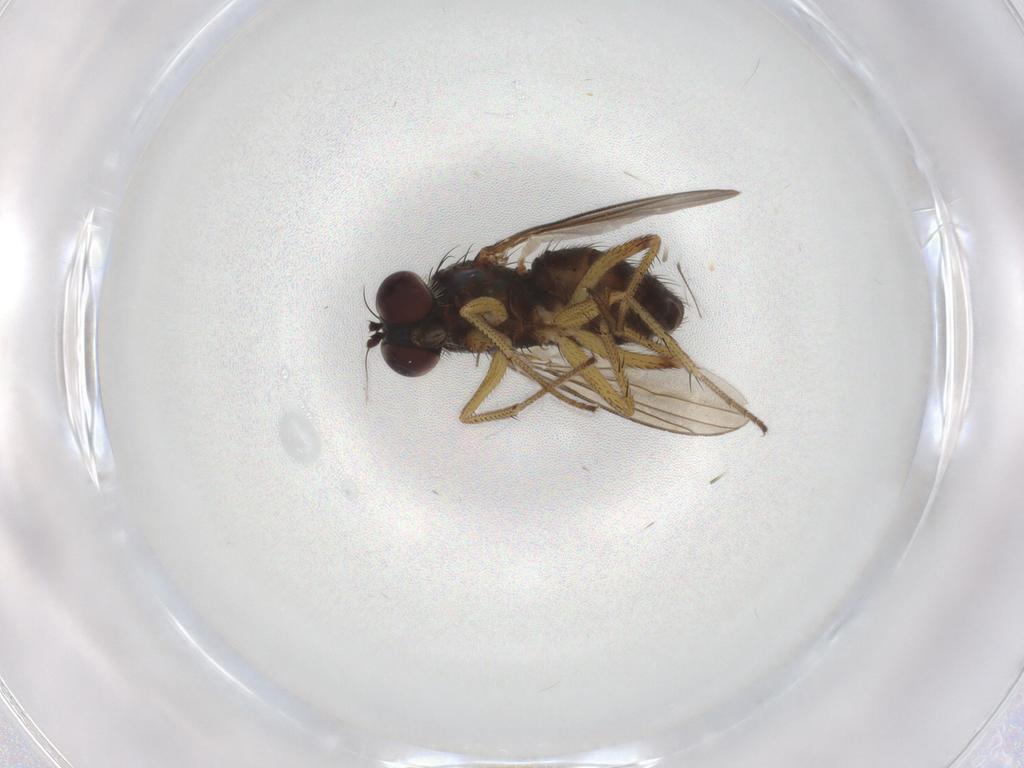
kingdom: Animalia
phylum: Arthropoda
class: Insecta
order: Diptera
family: Dolichopodidae
